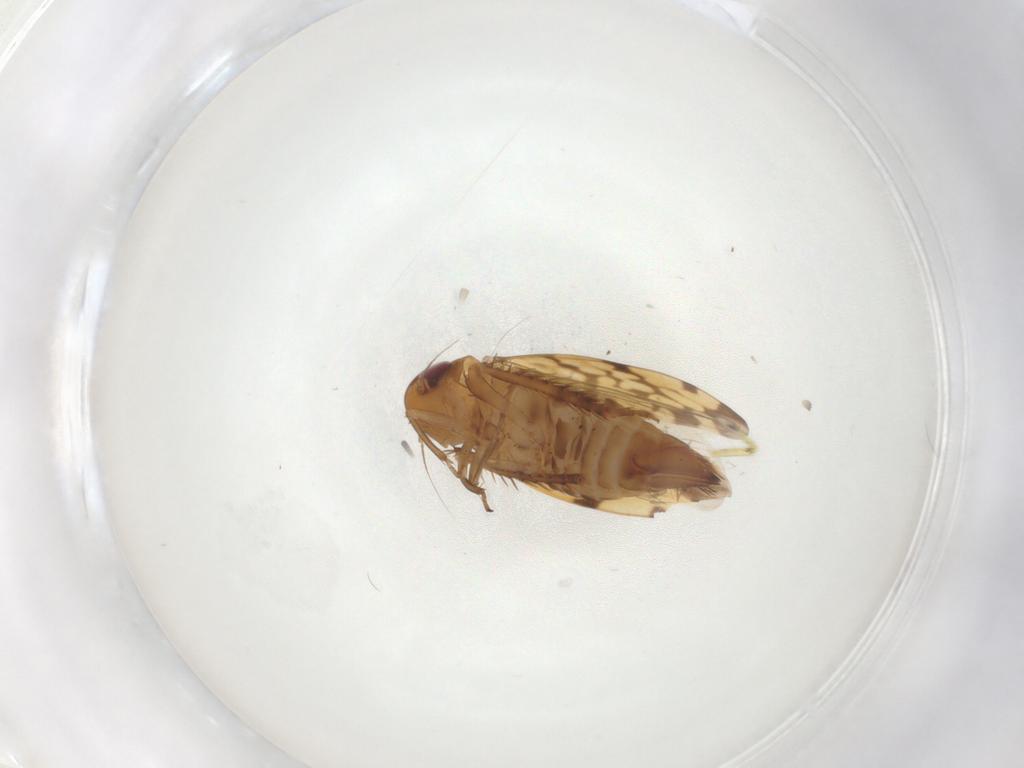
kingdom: Animalia
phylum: Arthropoda
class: Insecta
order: Hemiptera
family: Cicadellidae
